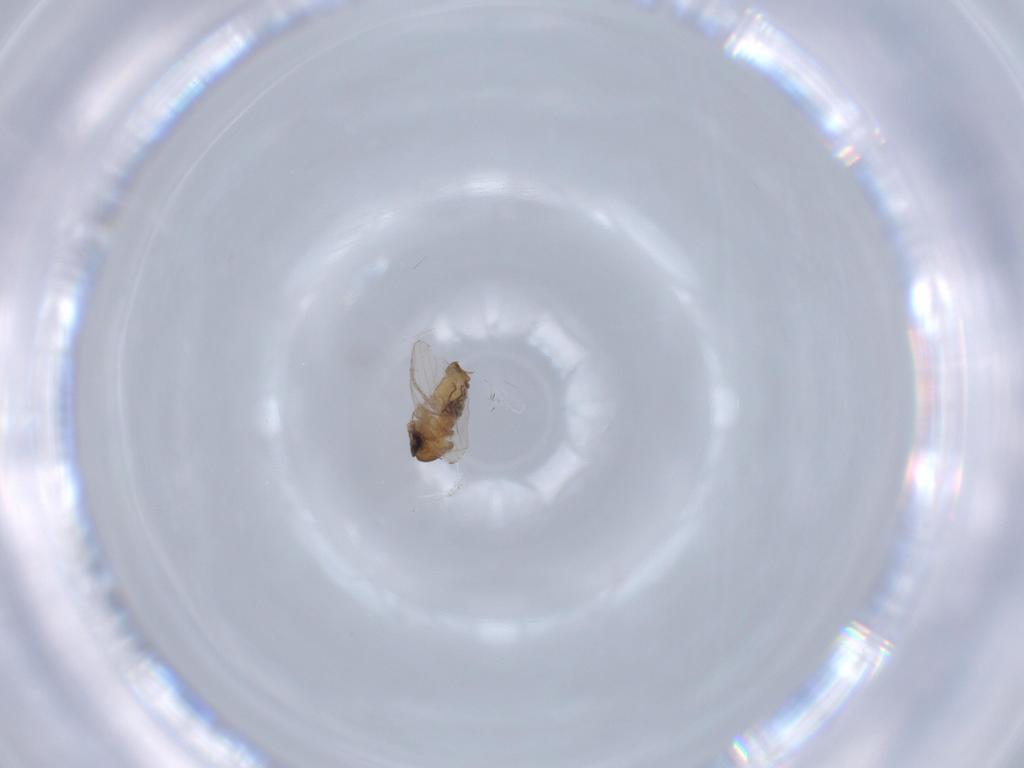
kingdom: Animalia
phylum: Arthropoda
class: Insecta
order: Diptera
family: Psychodidae
